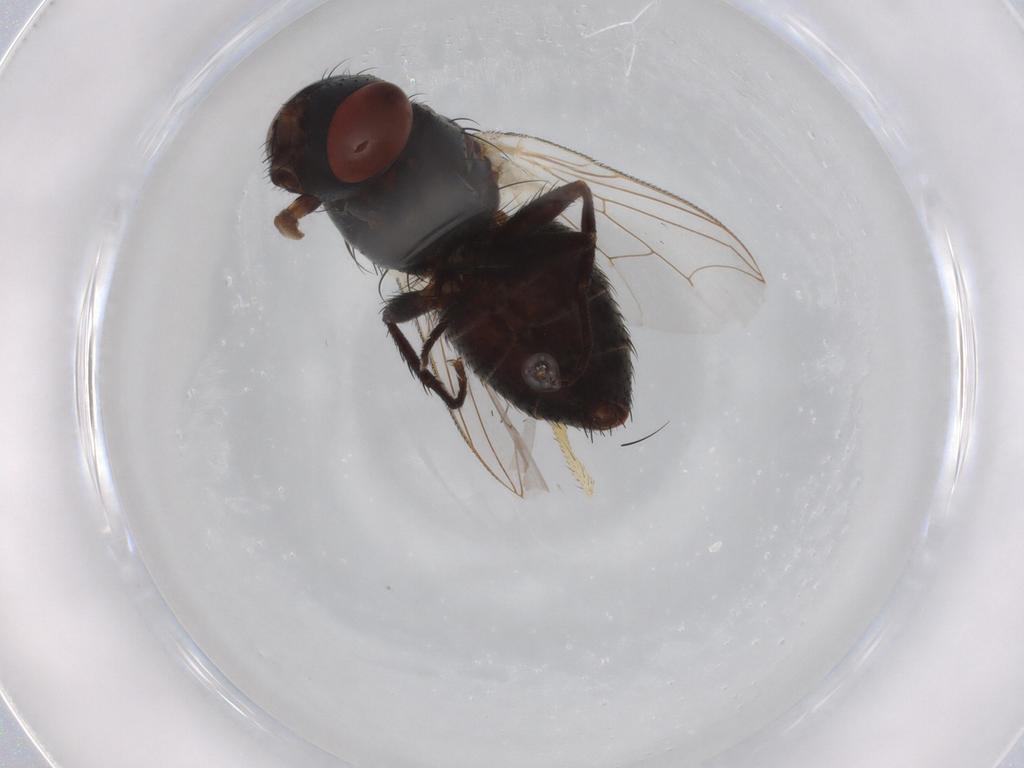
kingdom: Animalia
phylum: Arthropoda
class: Insecta
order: Diptera
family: Sarcophagidae
